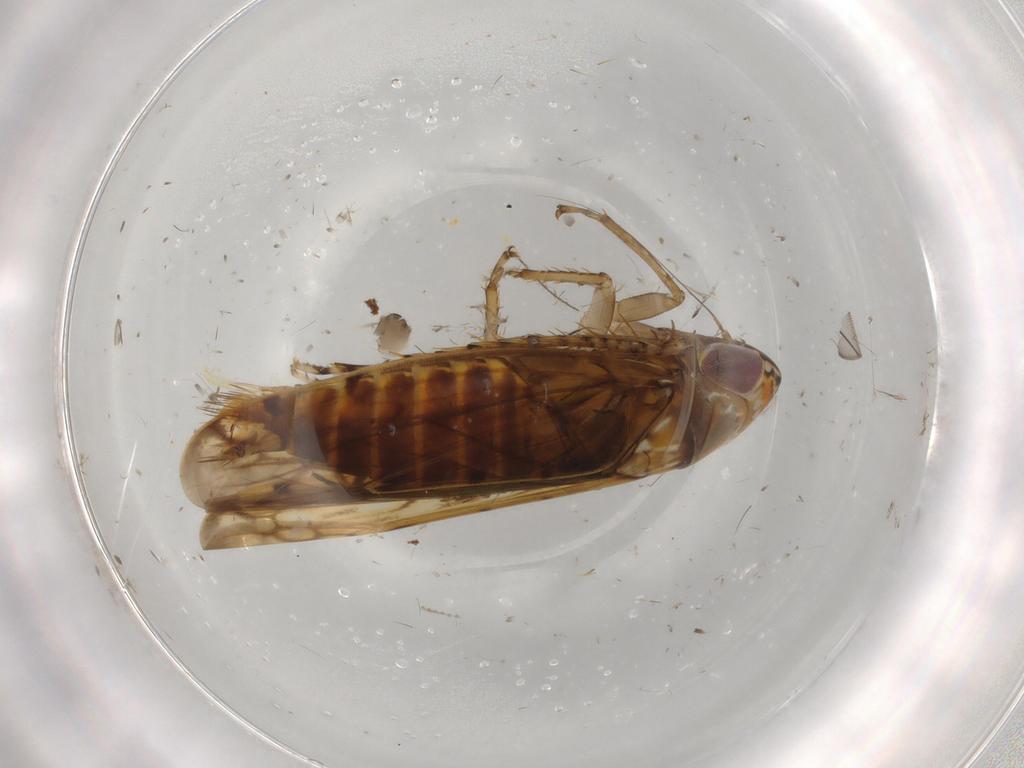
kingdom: Animalia
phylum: Arthropoda
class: Insecta
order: Hemiptera
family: Cicadellidae
